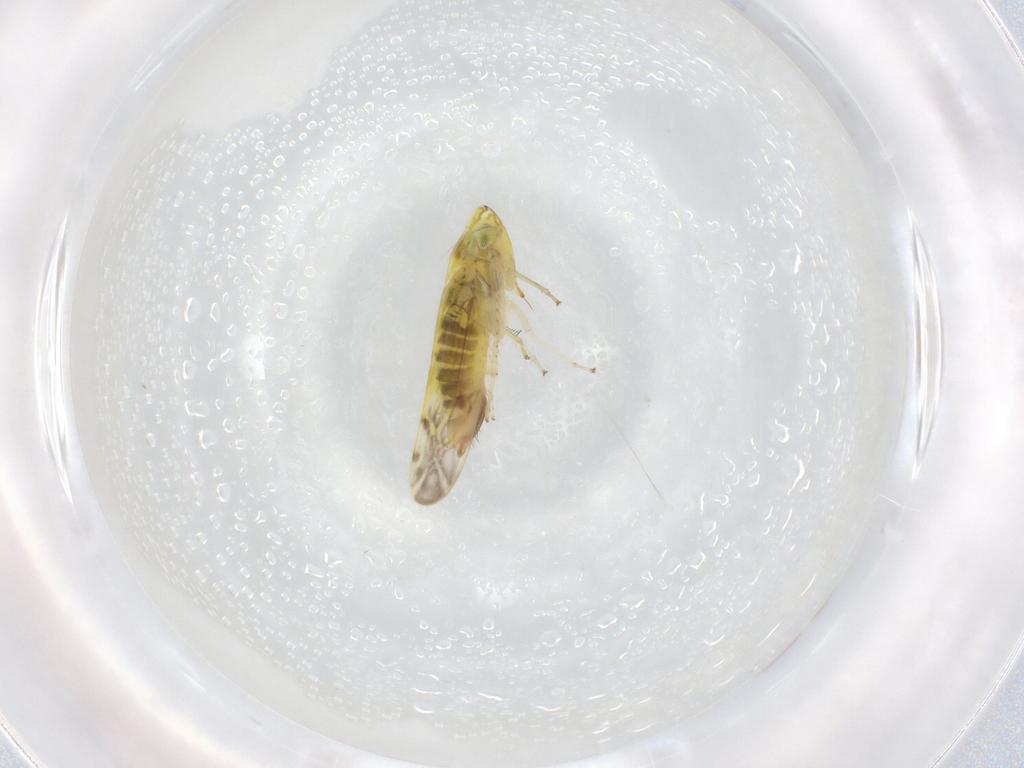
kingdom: Animalia
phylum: Arthropoda
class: Insecta
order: Hemiptera
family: Cicadellidae
